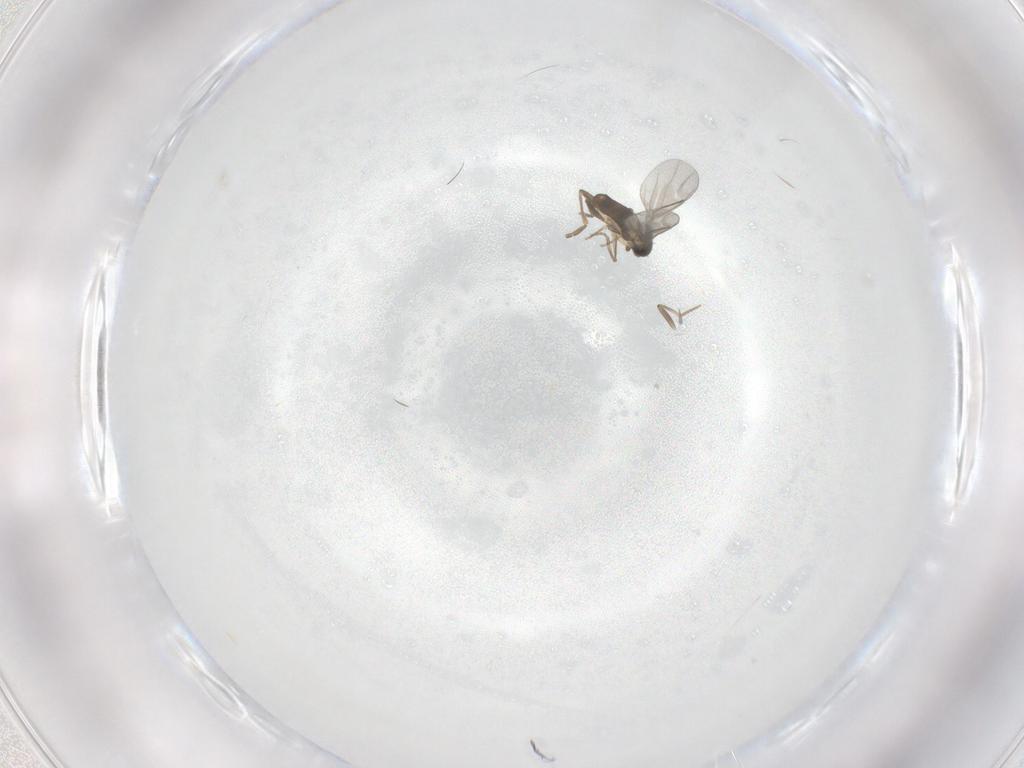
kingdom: Animalia
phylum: Arthropoda
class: Insecta
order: Diptera
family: Chironomidae
